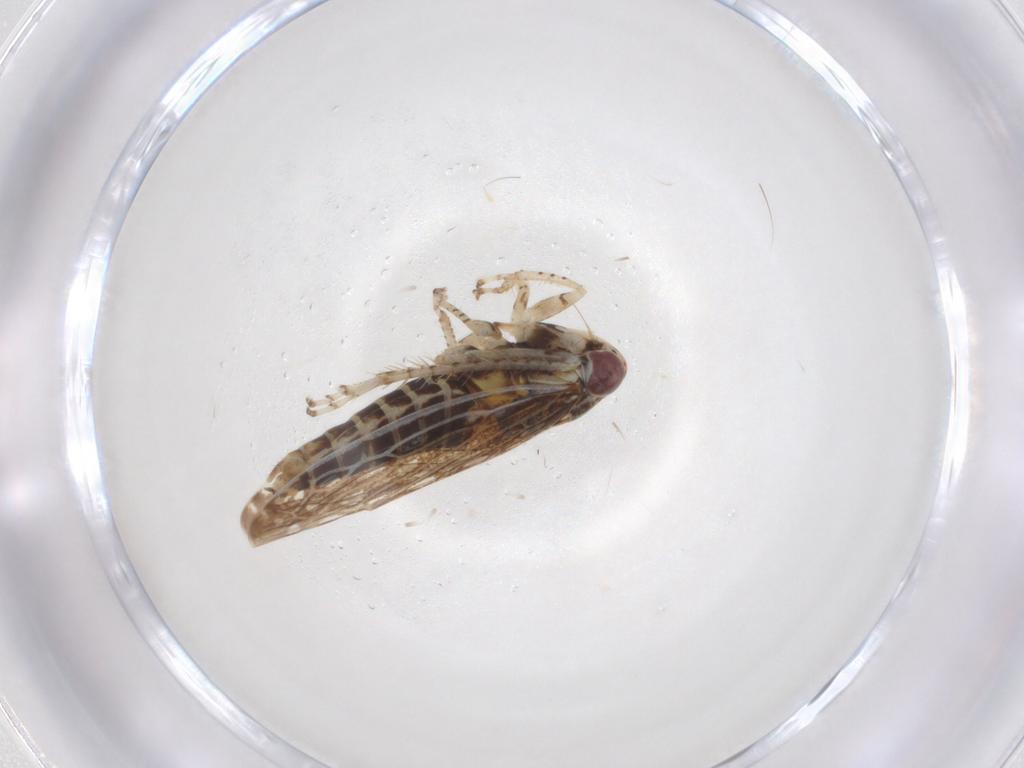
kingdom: Animalia
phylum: Arthropoda
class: Insecta
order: Hemiptera
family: Cicadellidae
